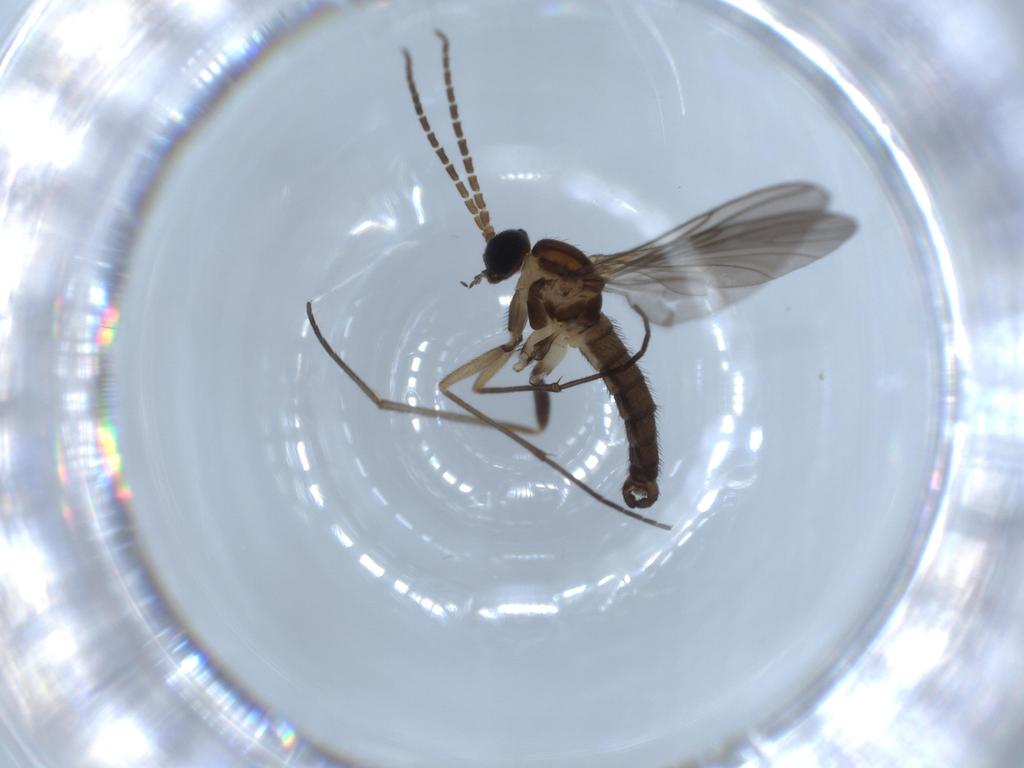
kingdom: Animalia
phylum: Arthropoda
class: Insecta
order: Diptera
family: Sciaridae
